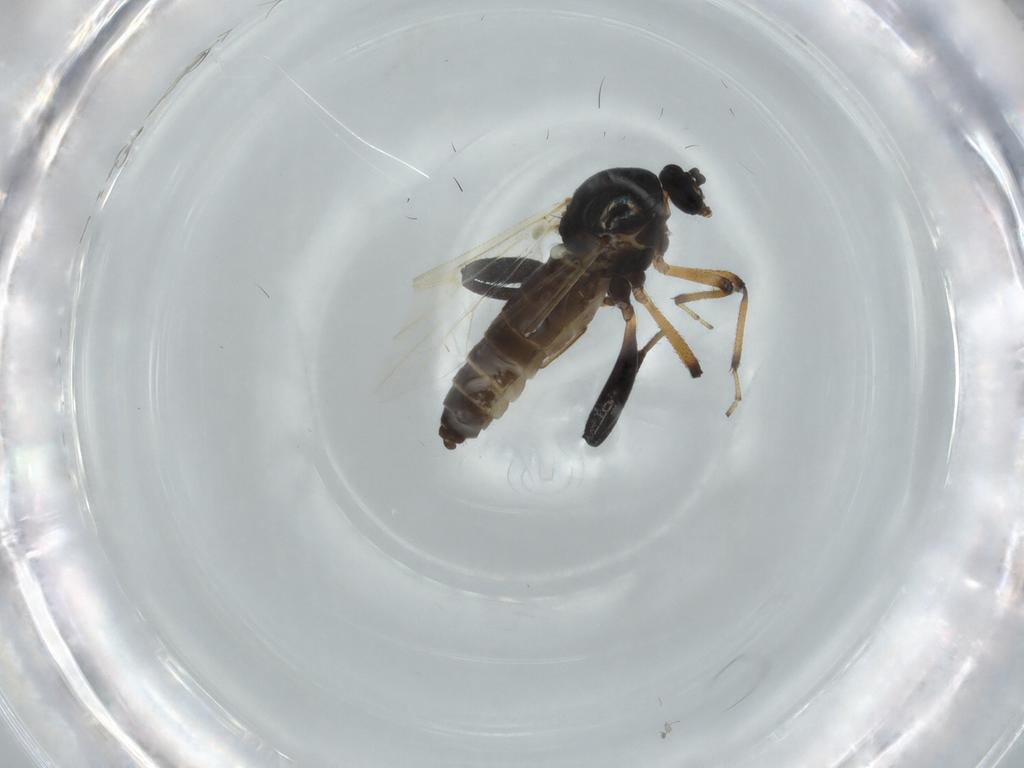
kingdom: Animalia
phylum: Arthropoda
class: Insecta
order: Diptera
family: Ceratopogonidae
